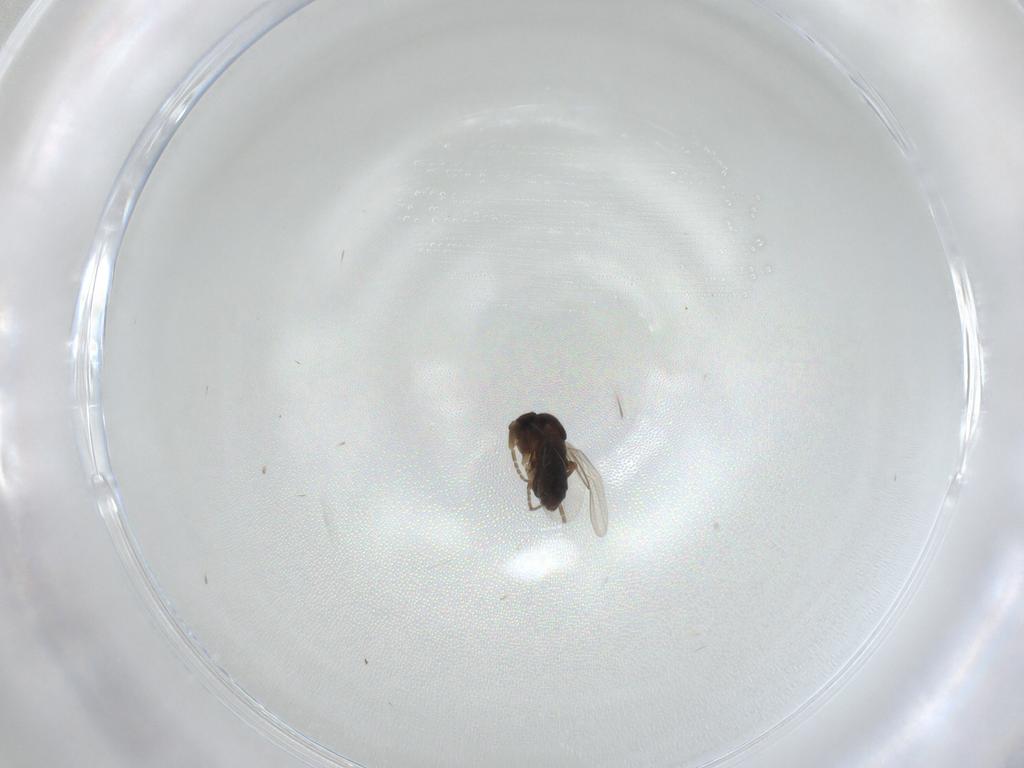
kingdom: Animalia
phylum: Arthropoda
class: Insecta
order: Diptera
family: Phoridae
